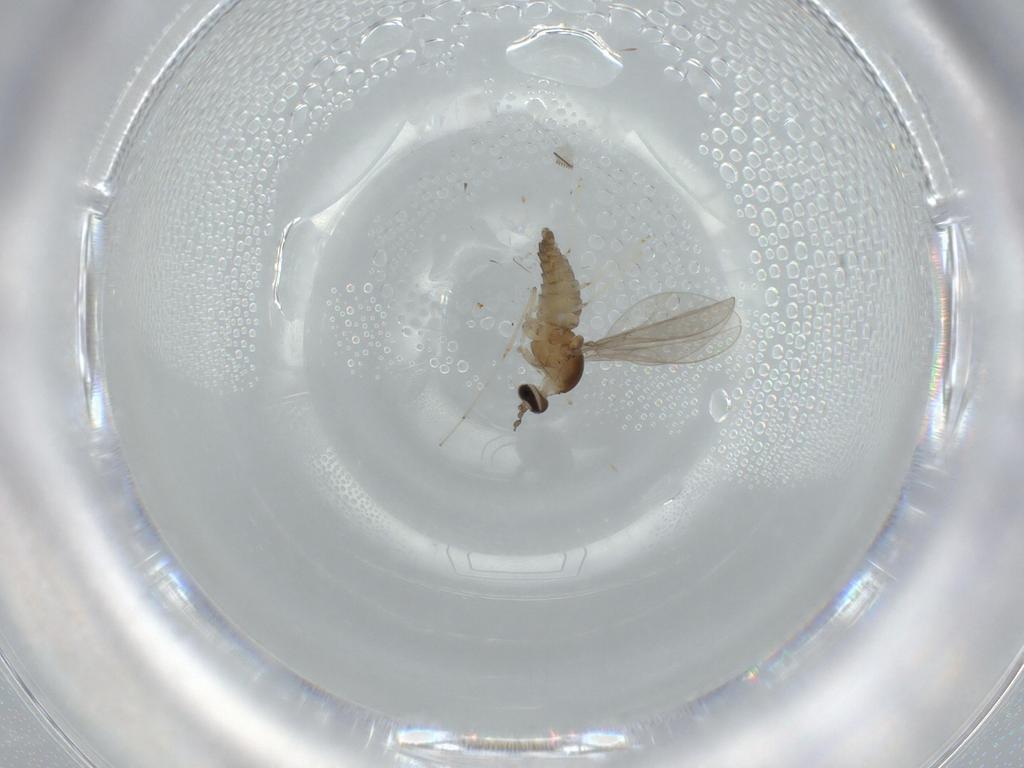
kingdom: Animalia
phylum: Arthropoda
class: Insecta
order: Diptera
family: Cecidomyiidae
